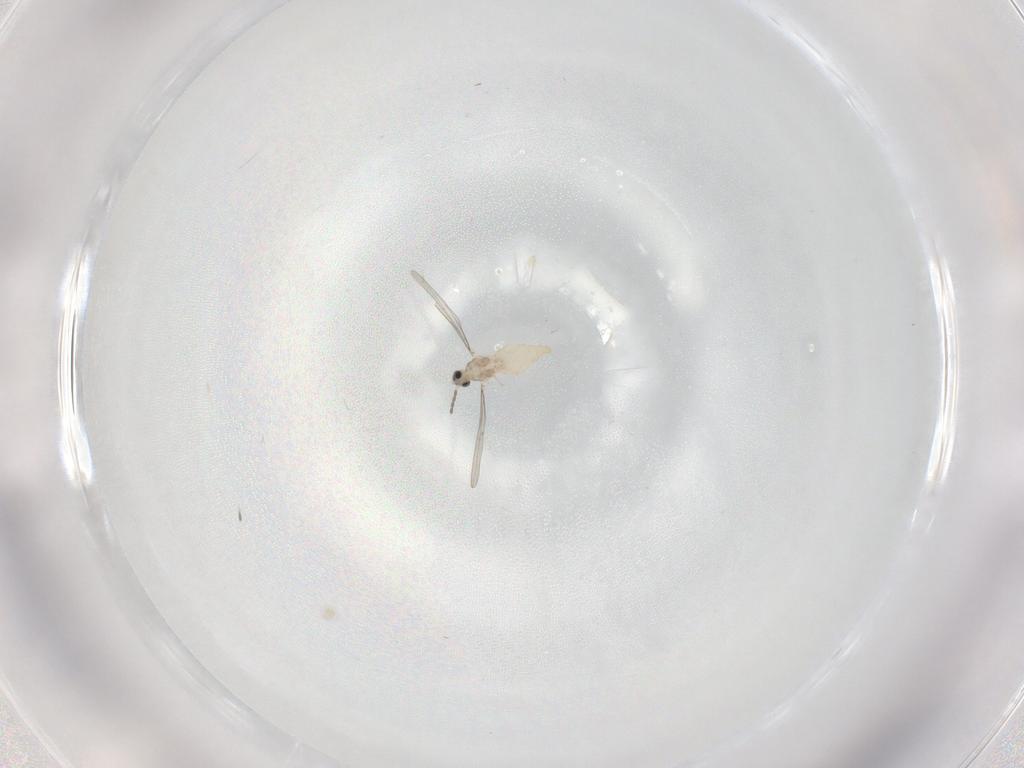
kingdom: Animalia
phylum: Arthropoda
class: Insecta
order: Diptera
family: Cecidomyiidae
